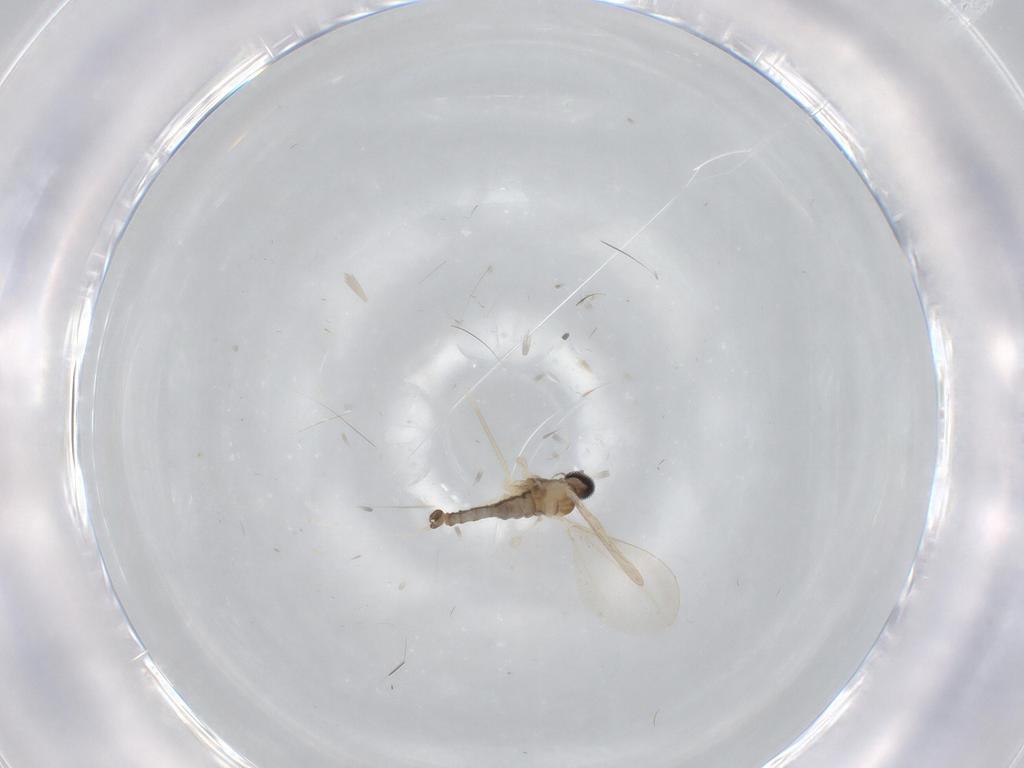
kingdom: Animalia
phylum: Arthropoda
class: Insecta
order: Diptera
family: Cecidomyiidae
